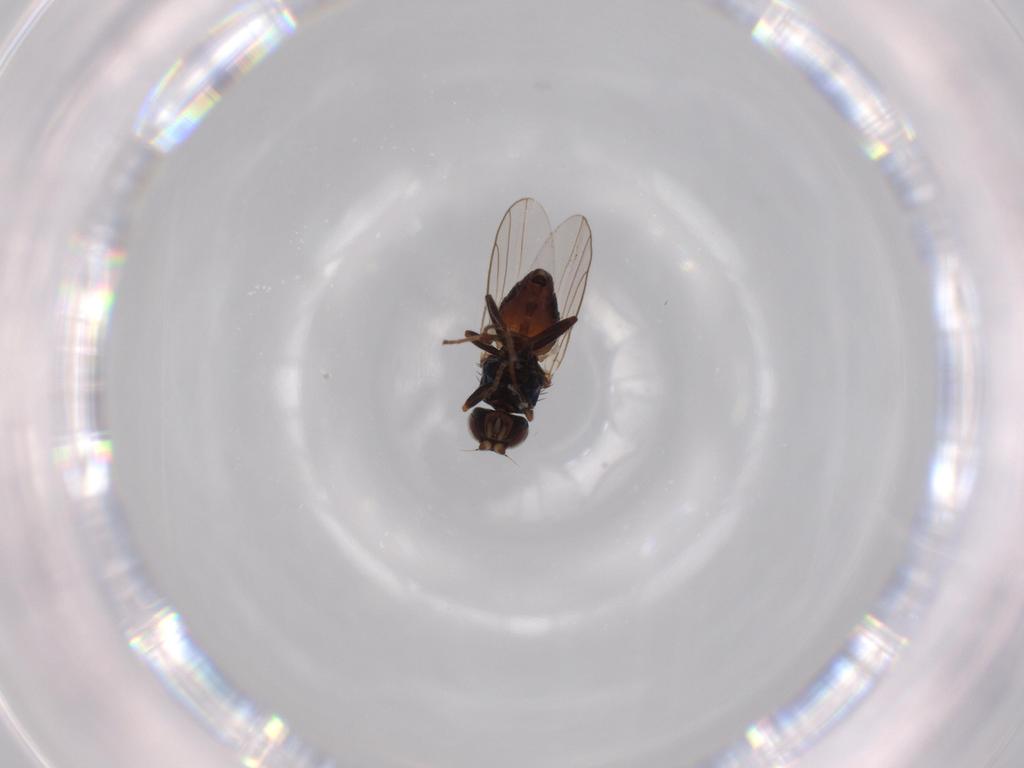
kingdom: Animalia
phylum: Arthropoda
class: Insecta
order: Diptera
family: Chloropidae
